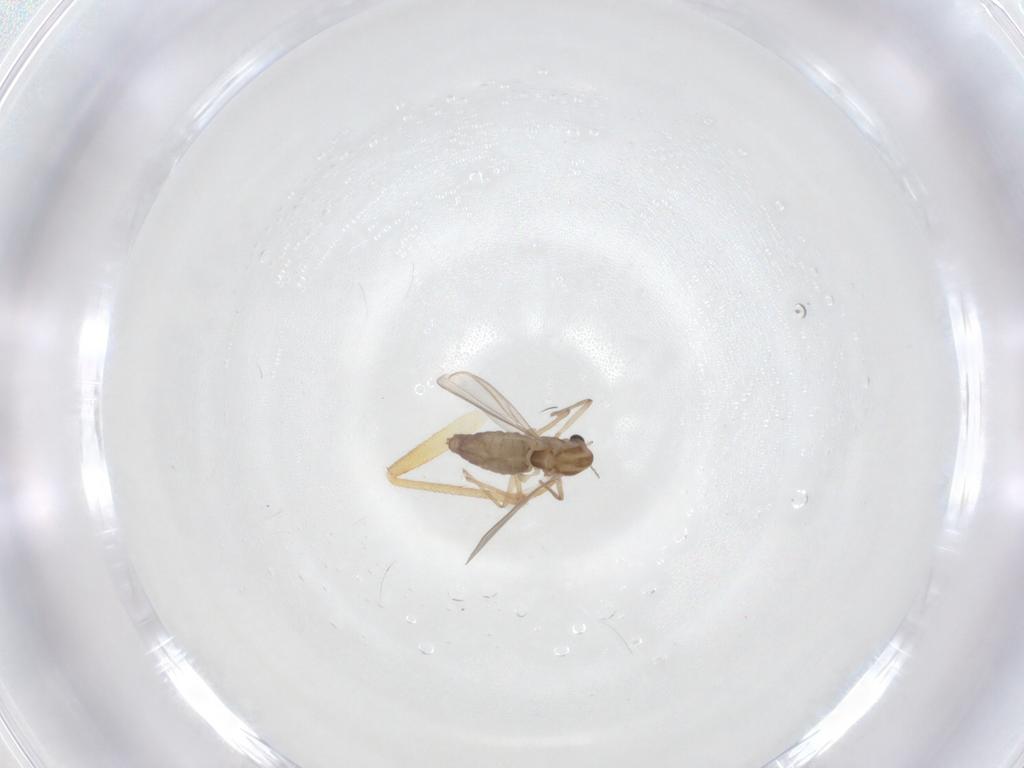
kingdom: Animalia
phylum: Arthropoda
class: Insecta
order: Diptera
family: Chironomidae
